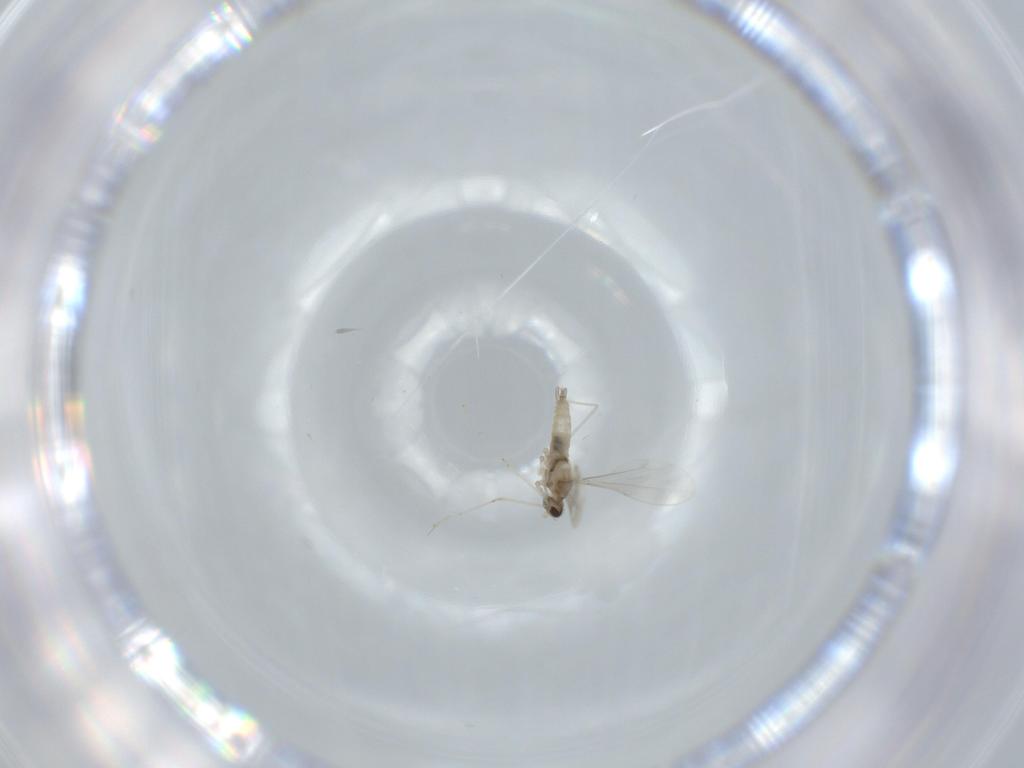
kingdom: Animalia
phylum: Arthropoda
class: Insecta
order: Diptera
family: Cecidomyiidae
